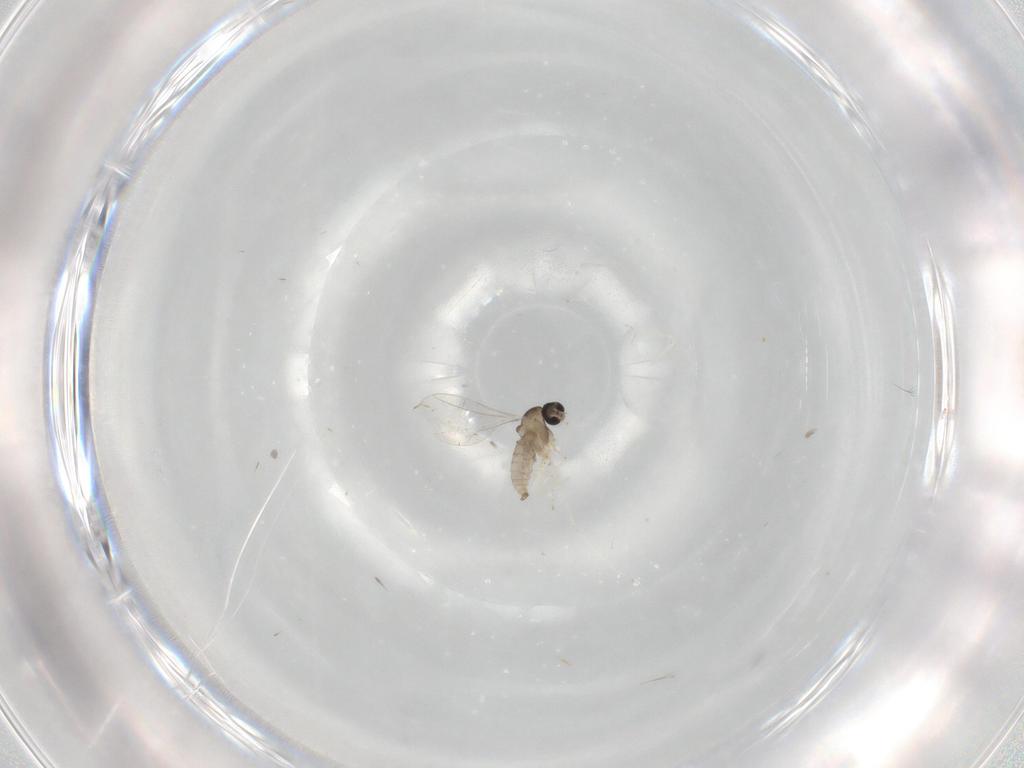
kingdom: Animalia
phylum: Arthropoda
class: Insecta
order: Diptera
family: Cecidomyiidae
